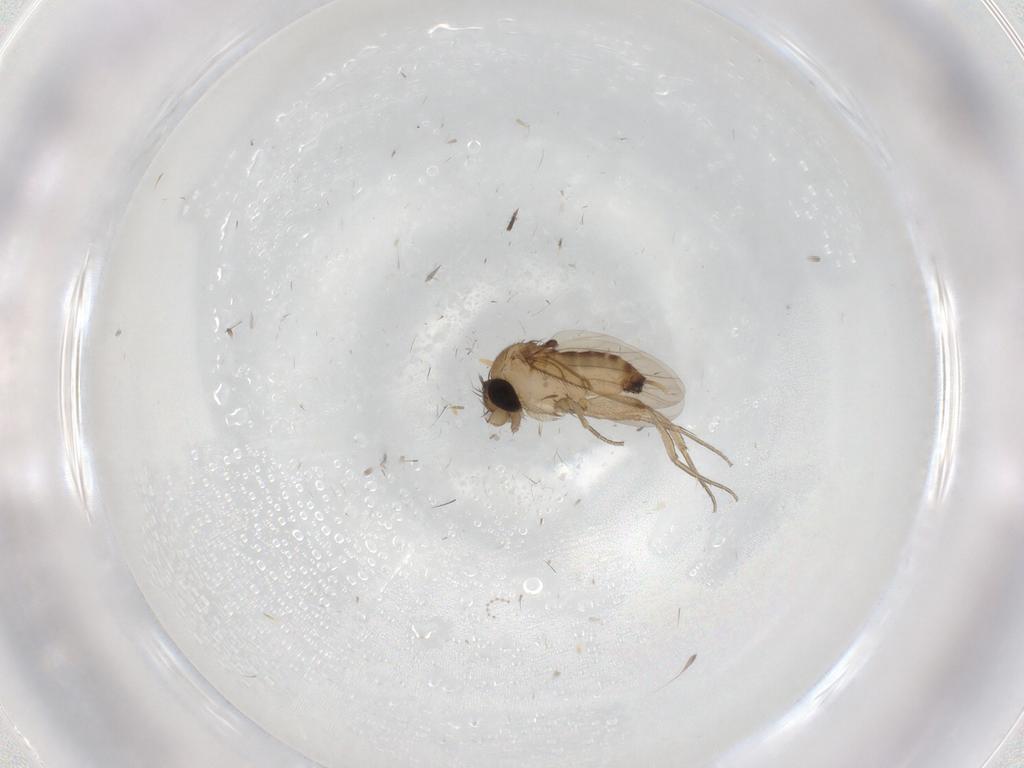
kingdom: Animalia
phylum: Arthropoda
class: Insecta
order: Diptera
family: Phoridae
